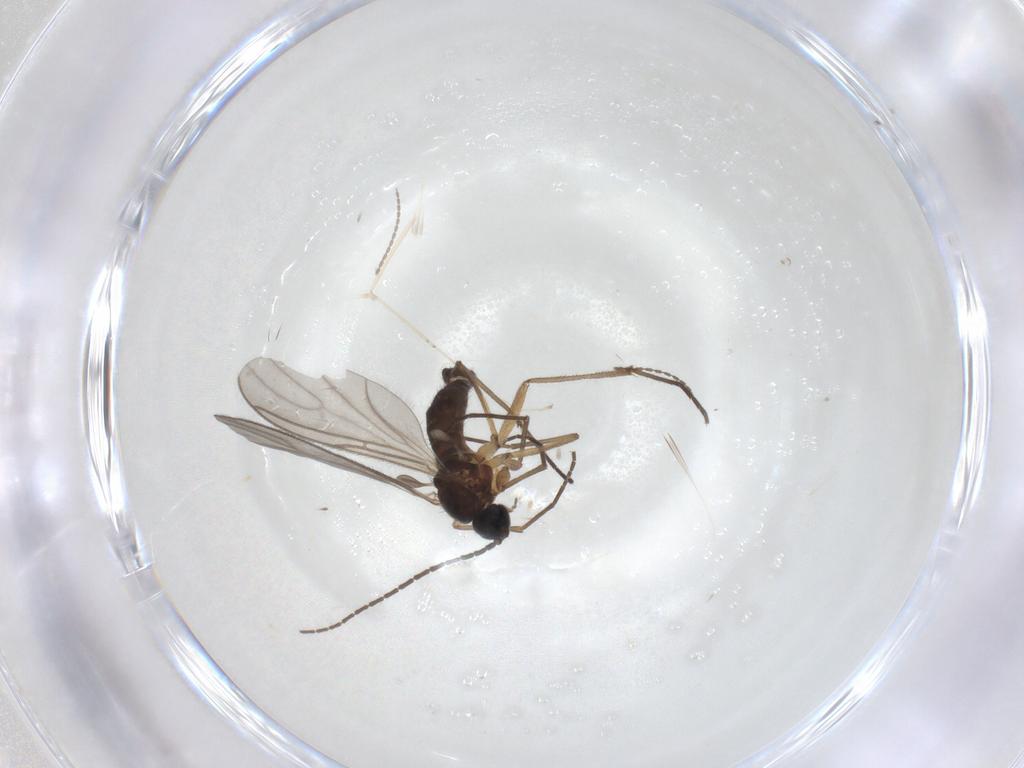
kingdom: Animalia
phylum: Arthropoda
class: Insecta
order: Diptera
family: Sciaridae
